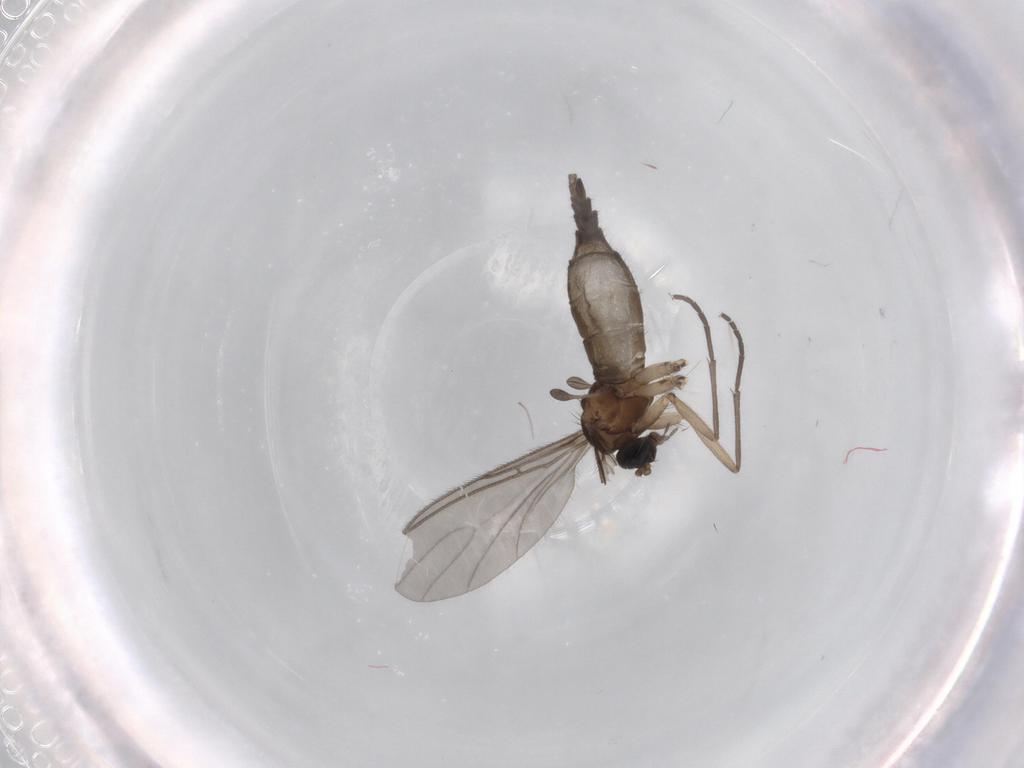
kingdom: Animalia
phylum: Arthropoda
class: Insecta
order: Diptera
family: Sciaridae
